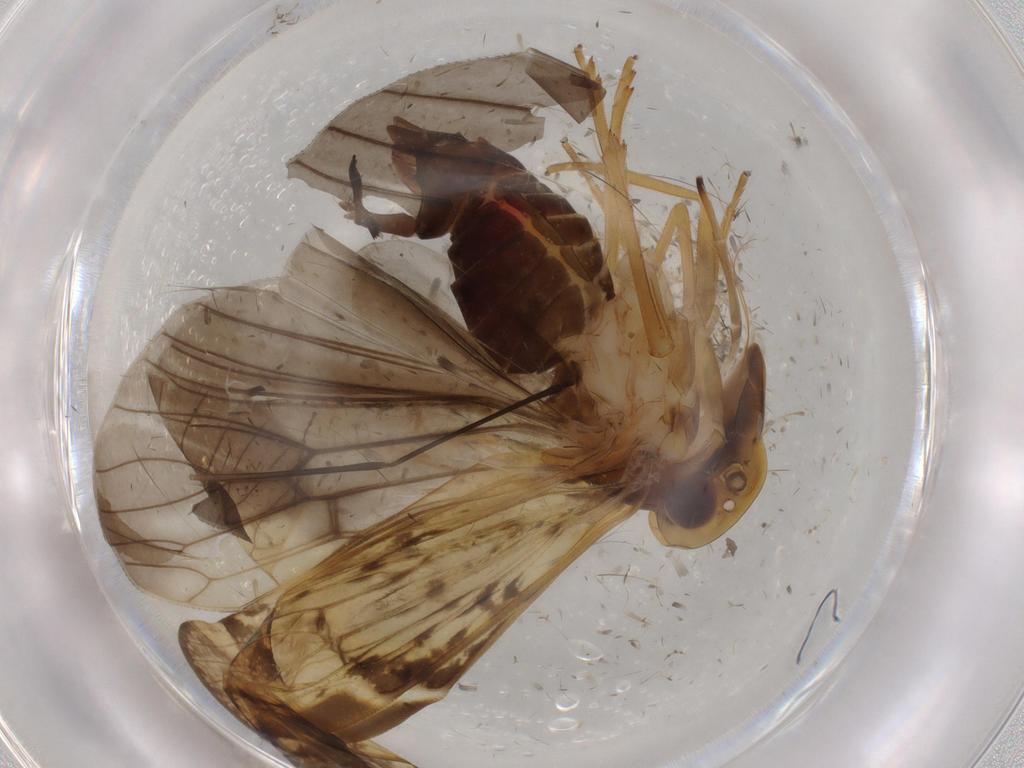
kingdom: Animalia
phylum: Arthropoda
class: Insecta
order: Hemiptera
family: Cixiidae
